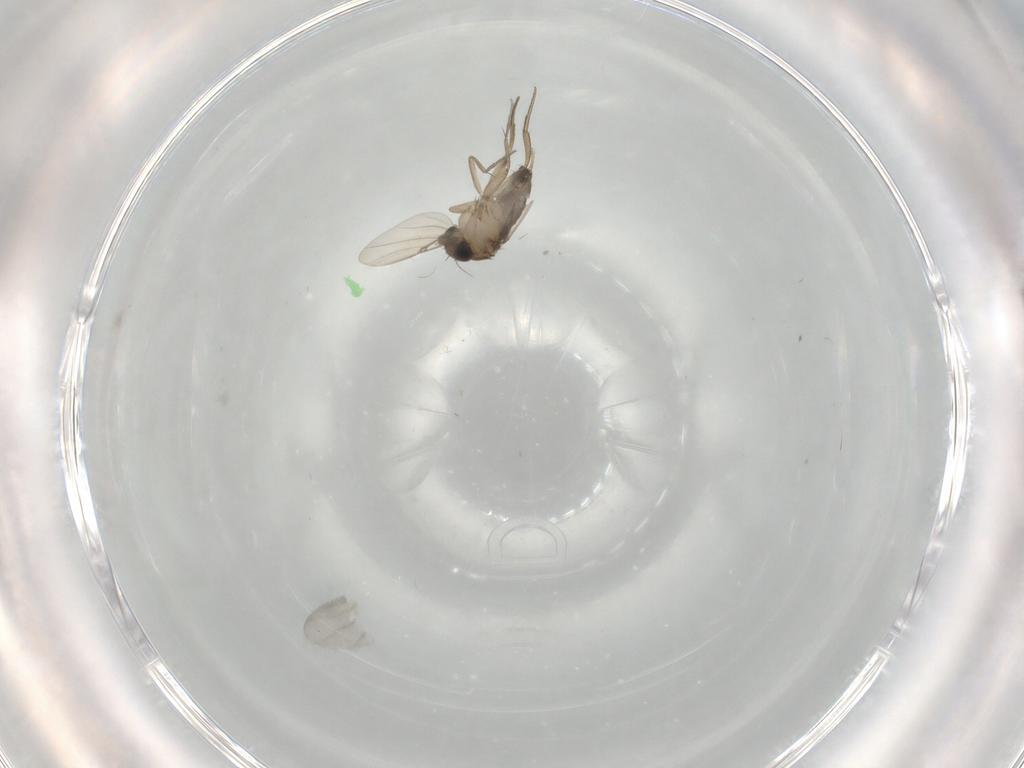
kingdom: Animalia
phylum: Arthropoda
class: Insecta
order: Diptera
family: Phoridae
